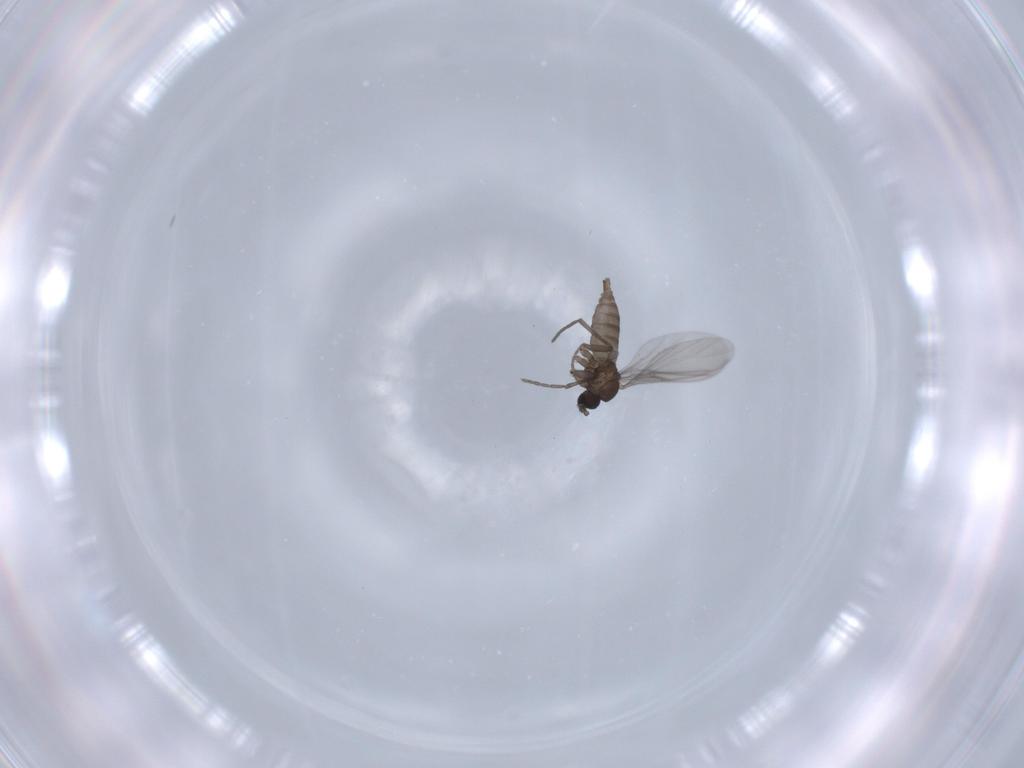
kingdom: Animalia
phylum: Arthropoda
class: Insecta
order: Diptera
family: Sciaridae
